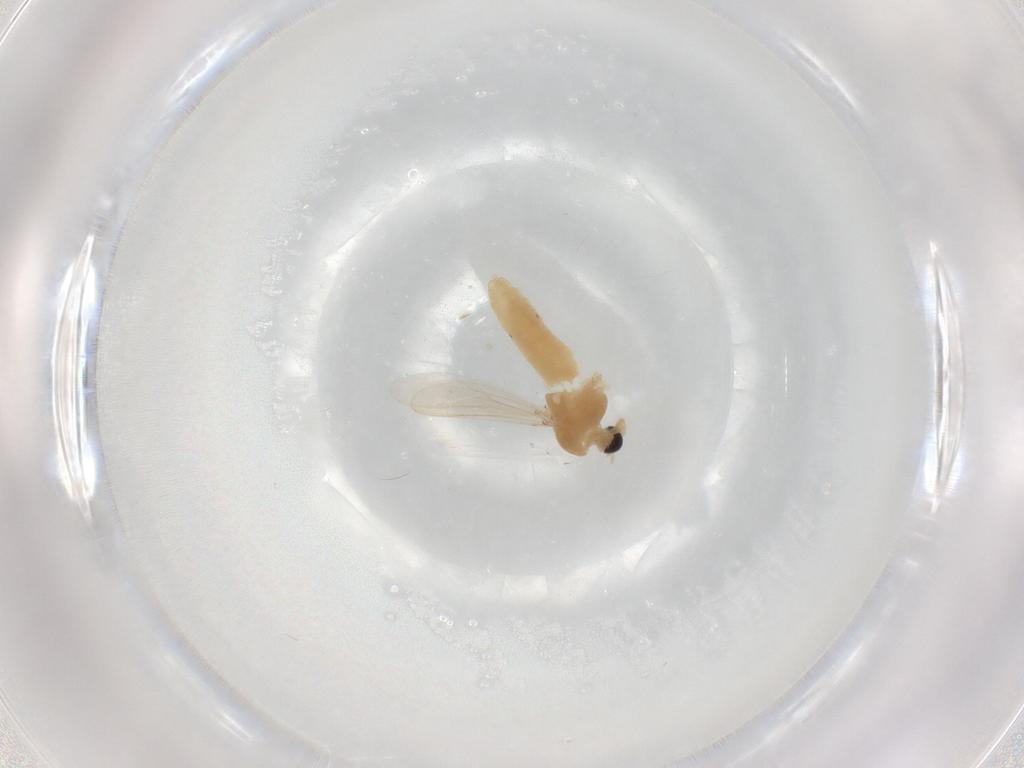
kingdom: Animalia
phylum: Arthropoda
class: Insecta
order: Diptera
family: Chironomidae
